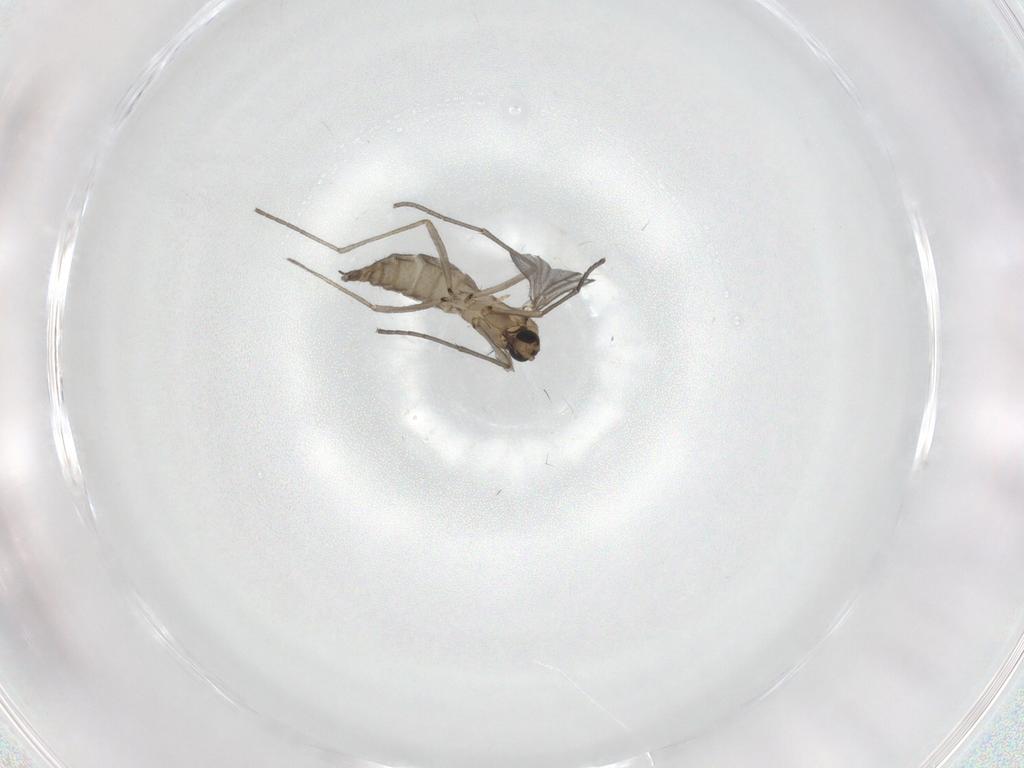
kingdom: Animalia
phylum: Arthropoda
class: Insecta
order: Diptera
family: Sciaridae
